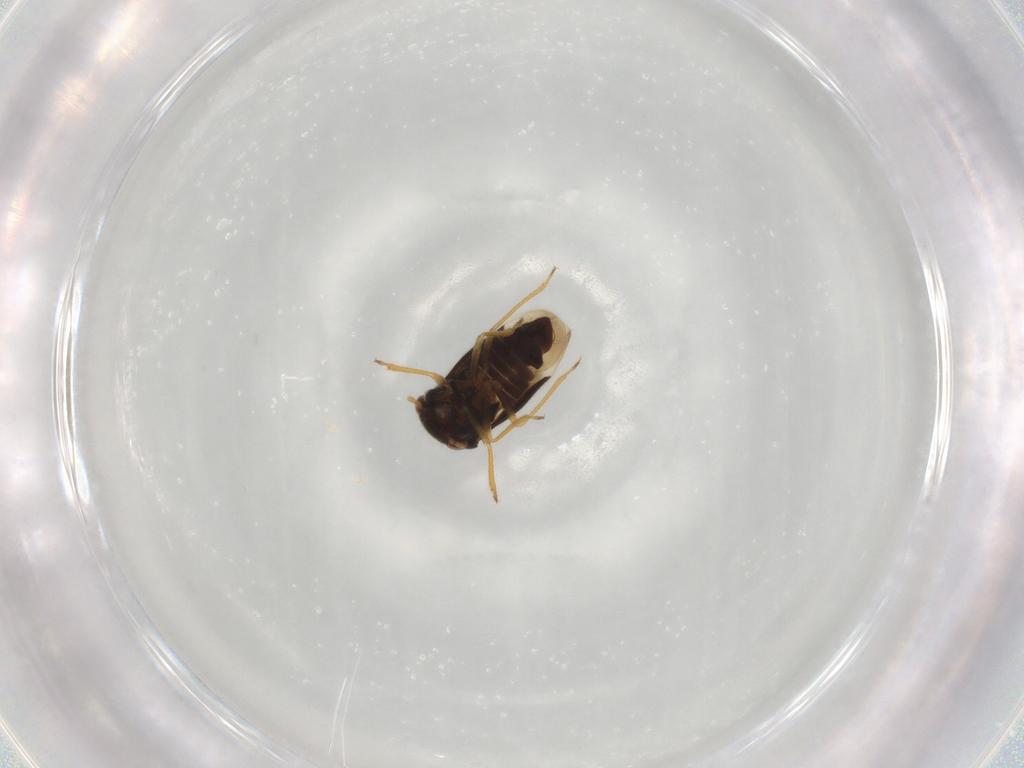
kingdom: Animalia
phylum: Arthropoda
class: Insecta
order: Hemiptera
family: Schizopteridae
